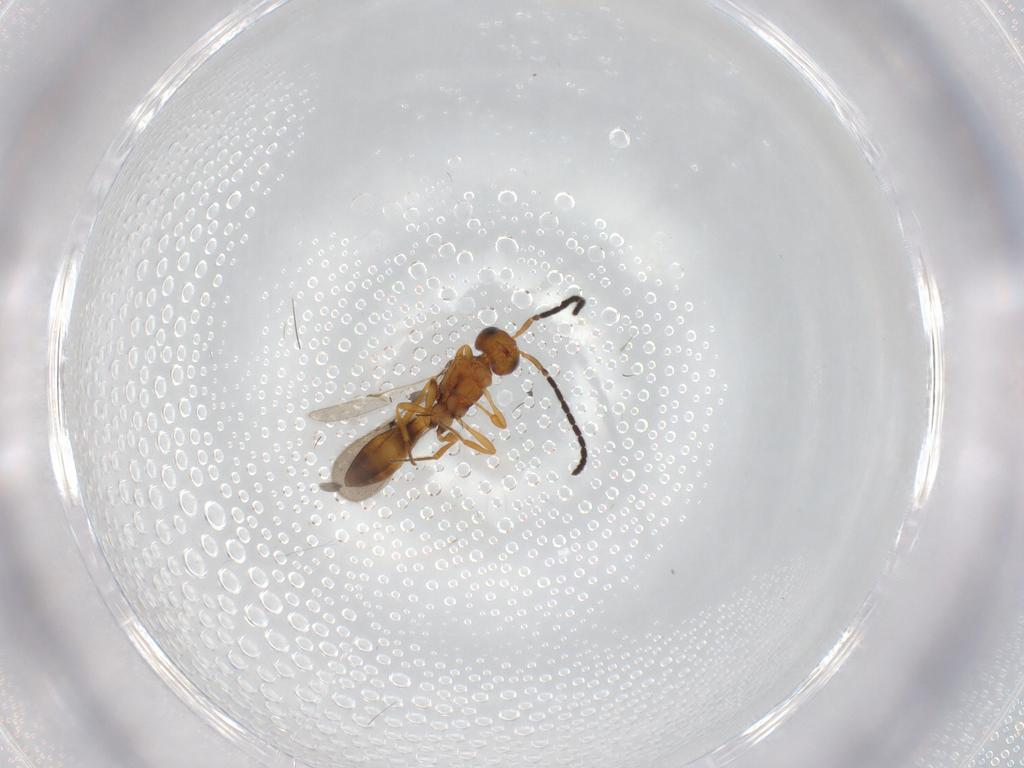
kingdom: Animalia
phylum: Arthropoda
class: Insecta
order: Hymenoptera
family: Scelionidae
